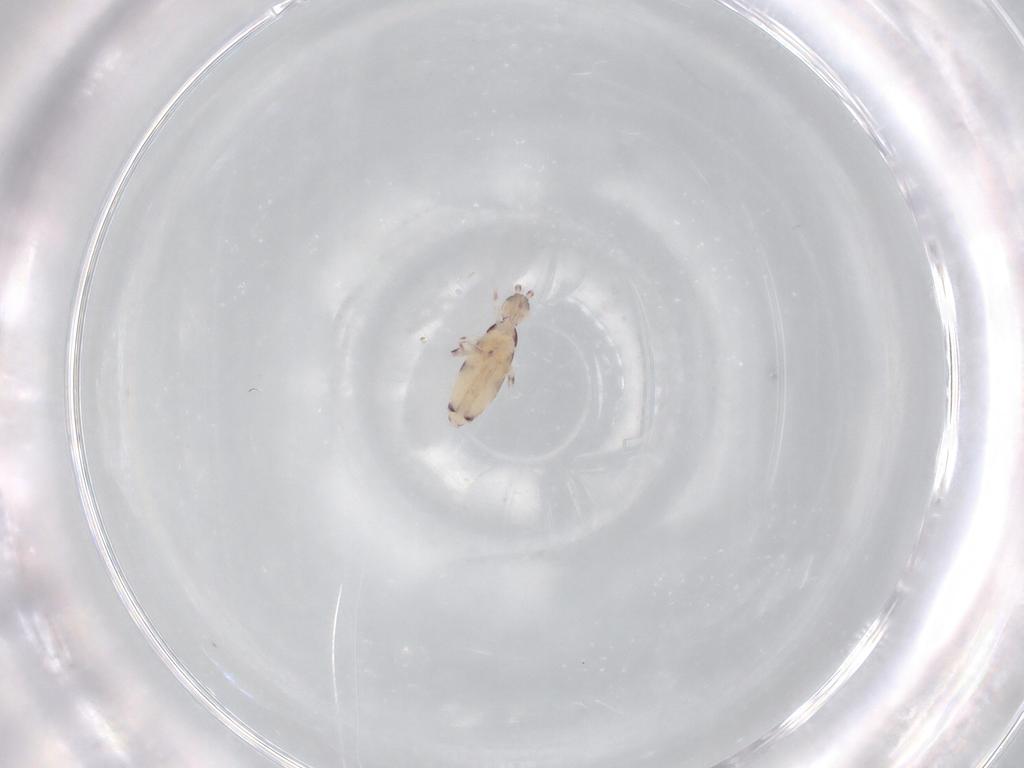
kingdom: Animalia
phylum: Arthropoda
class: Collembola
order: Poduromorpha
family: Hypogastruridae
